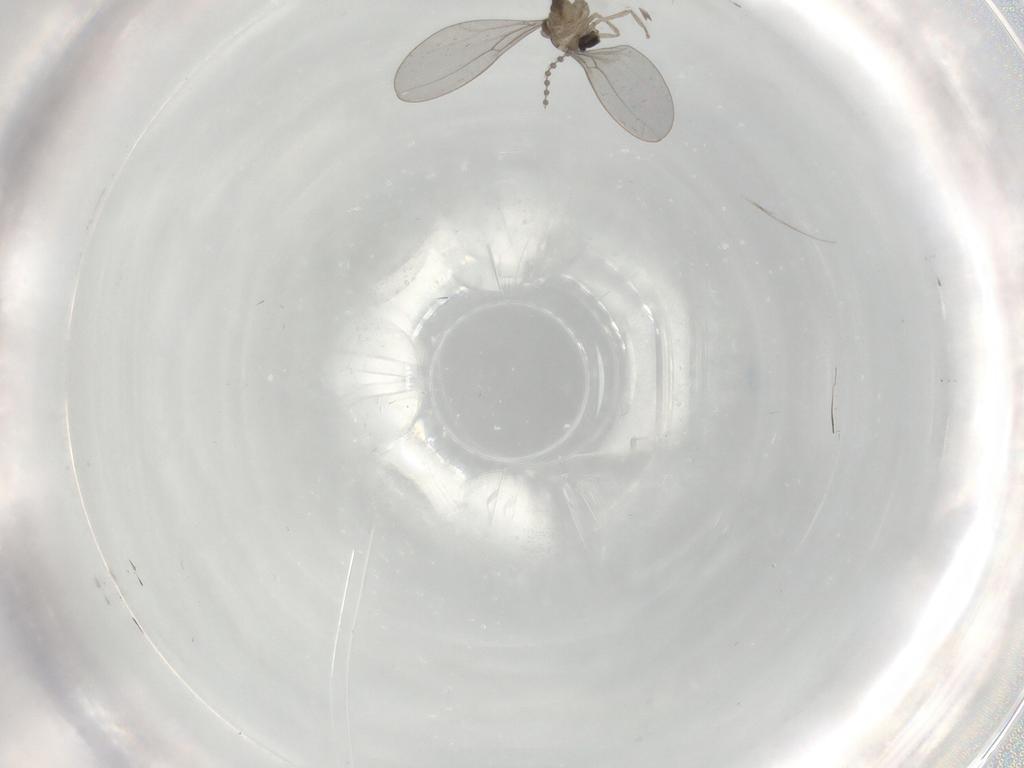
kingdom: Animalia
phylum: Arthropoda
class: Insecta
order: Diptera
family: Cecidomyiidae
